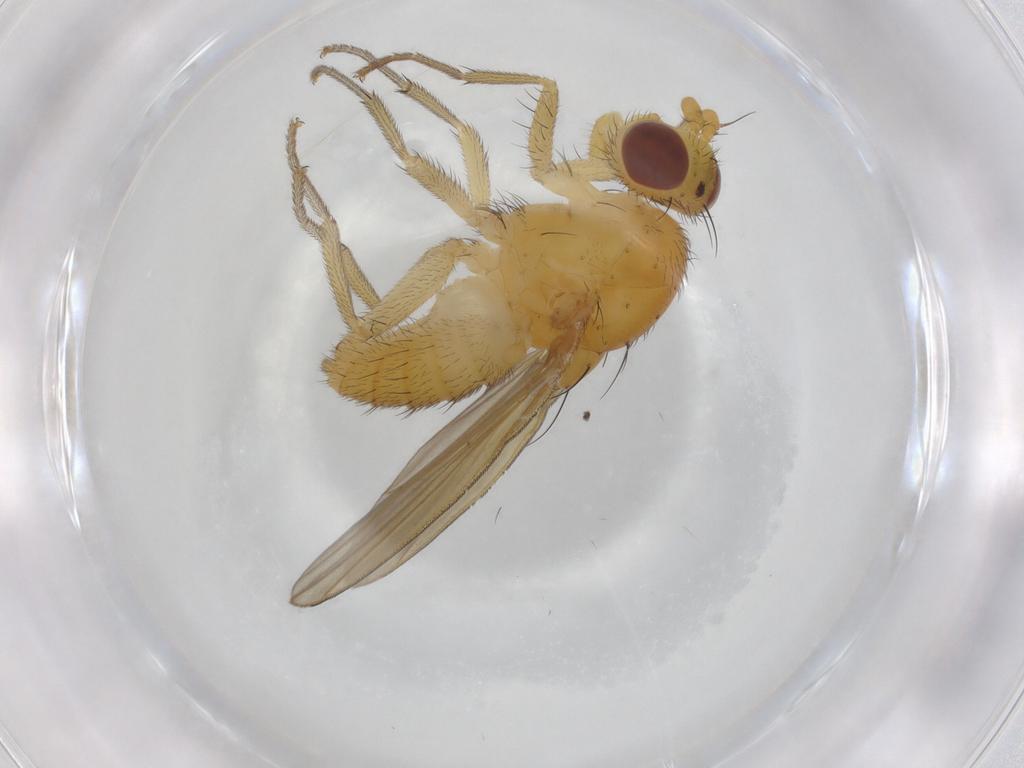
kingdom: Animalia
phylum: Arthropoda
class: Insecta
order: Diptera
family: Lauxaniidae
